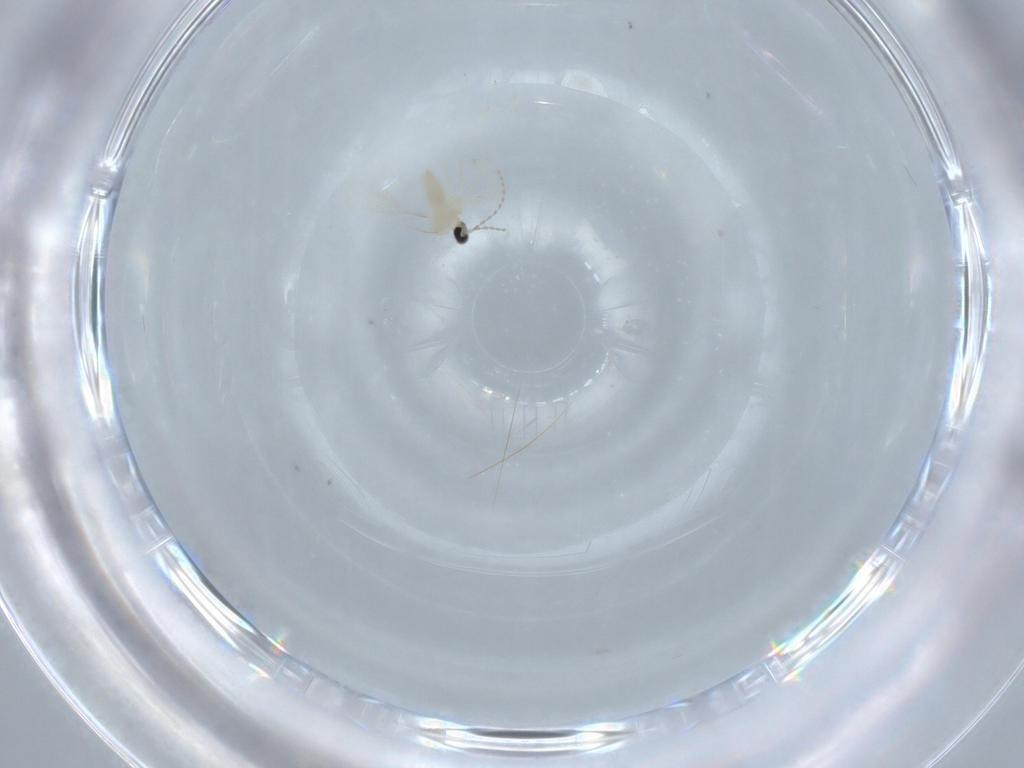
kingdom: Animalia
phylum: Arthropoda
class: Insecta
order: Diptera
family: Cecidomyiidae
